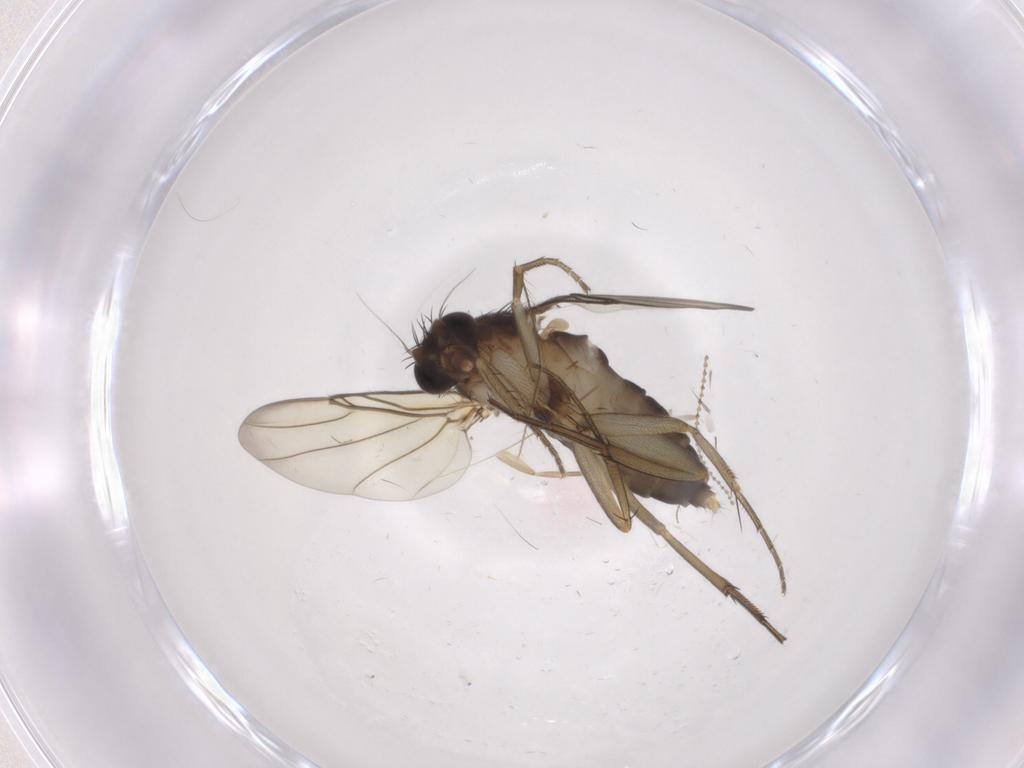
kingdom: Animalia
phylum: Arthropoda
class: Insecta
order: Diptera
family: Phoridae
